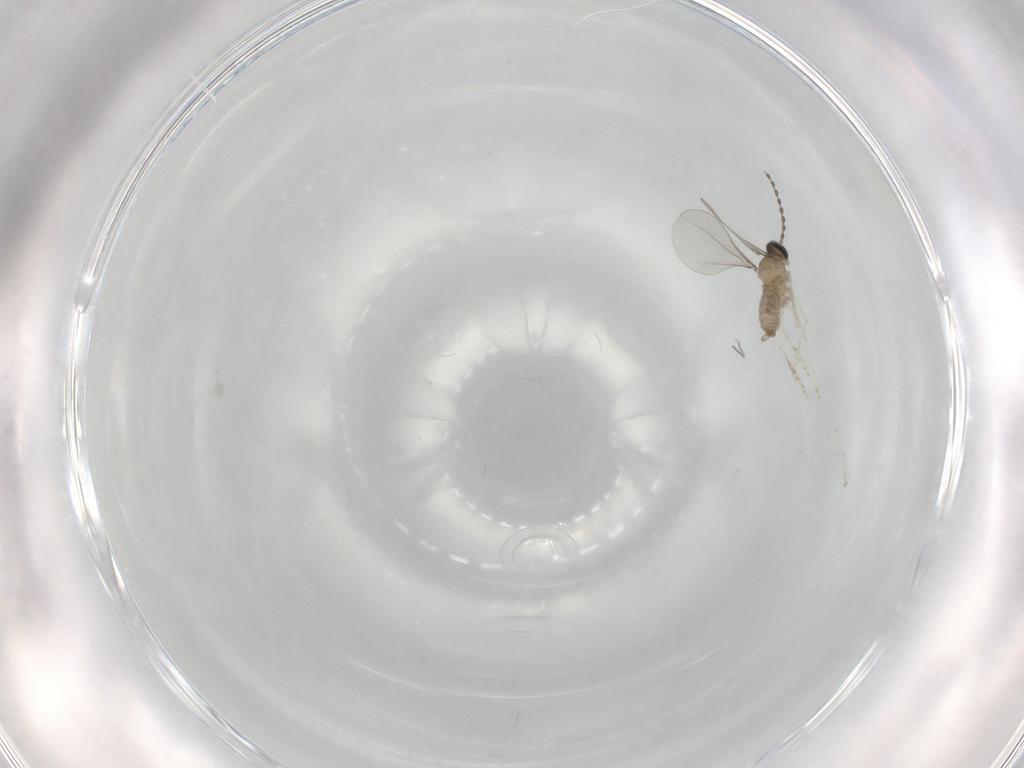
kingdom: Animalia
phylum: Arthropoda
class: Insecta
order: Diptera
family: Cecidomyiidae
